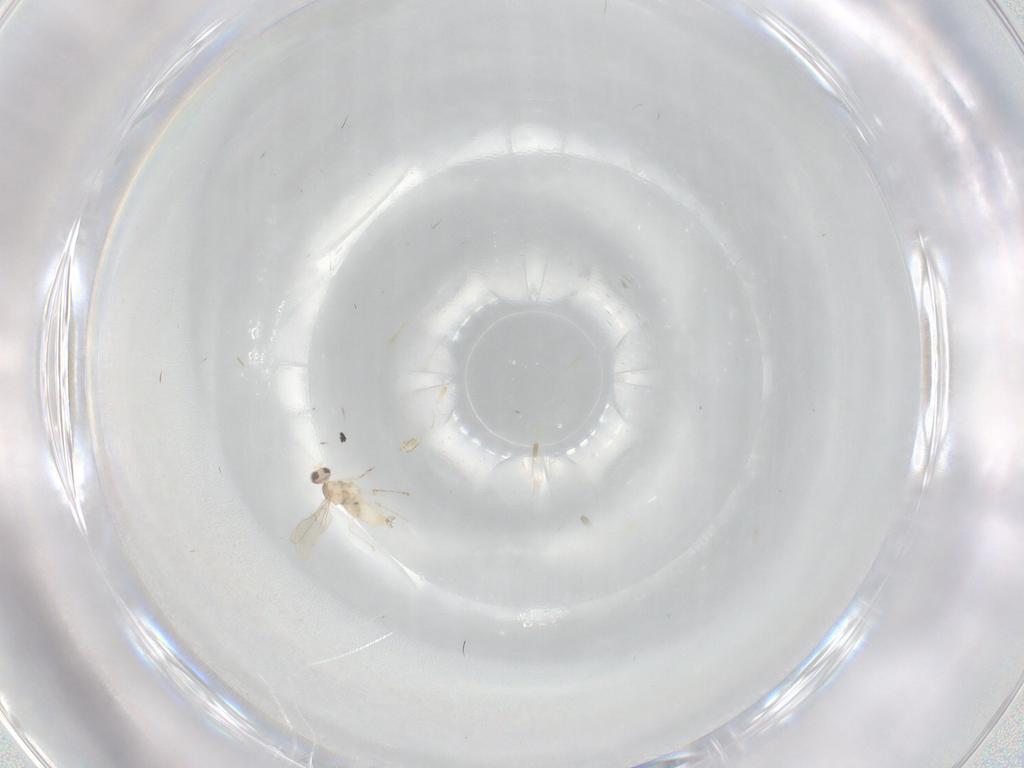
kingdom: Animalia
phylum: Arthropoda
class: Insecta
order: Diptera
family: Cecidomyiidae
